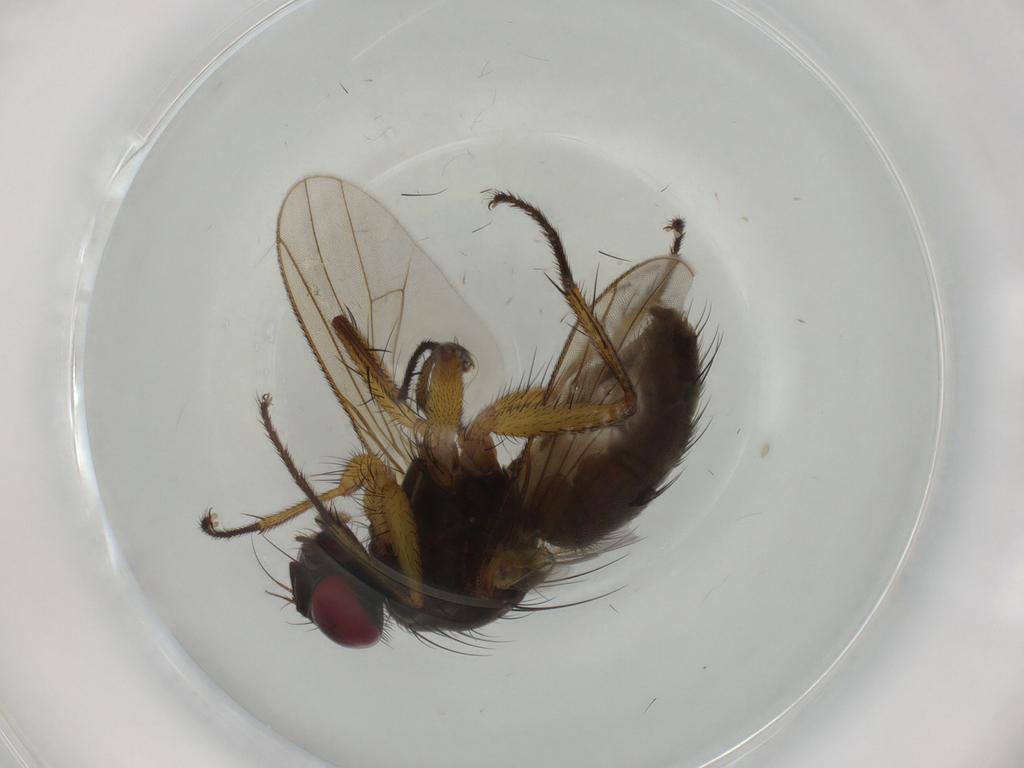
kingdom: Animalia
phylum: Arthropoda
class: Insecta
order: Diptera
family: Muscidae
